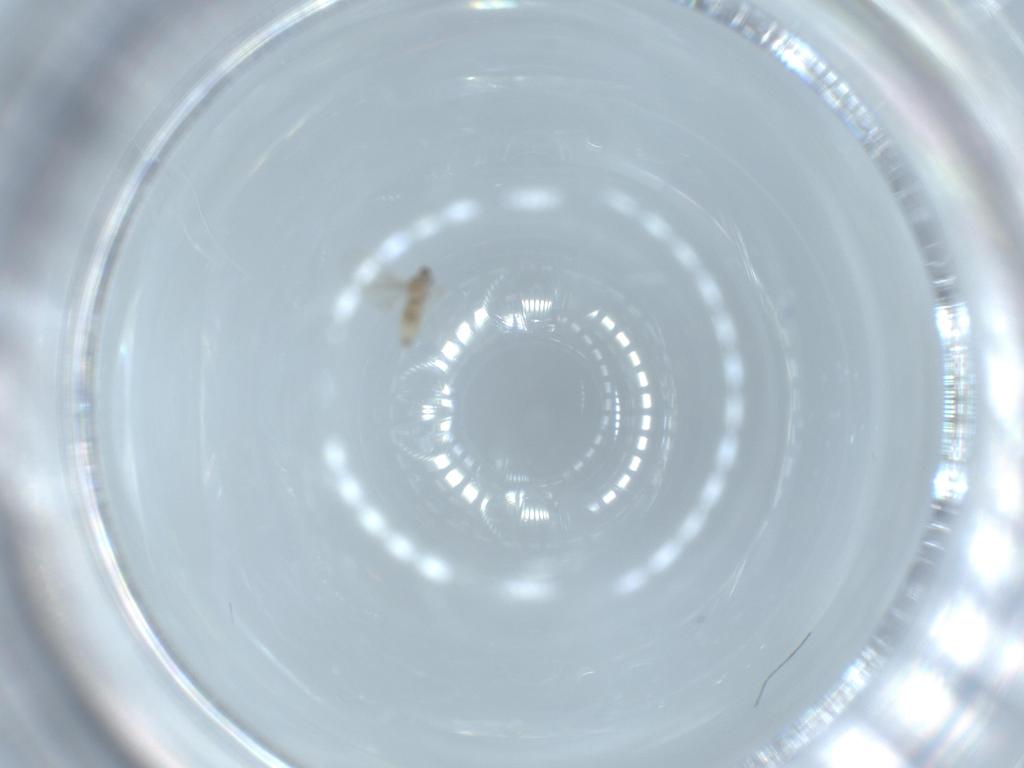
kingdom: Animalia
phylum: Arthropoda
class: Insecta
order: Diptera
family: Cecidomyiidae
